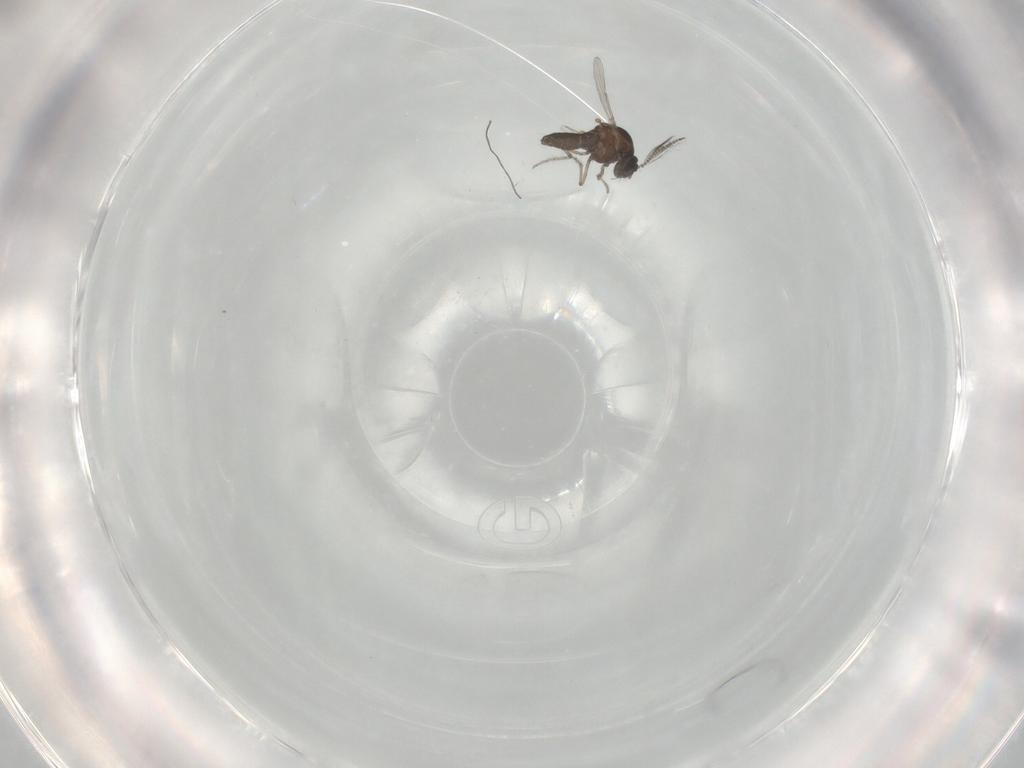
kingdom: Animalia
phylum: Arthropoda
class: Insecta
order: Diptera
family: Ceratopogonidae
